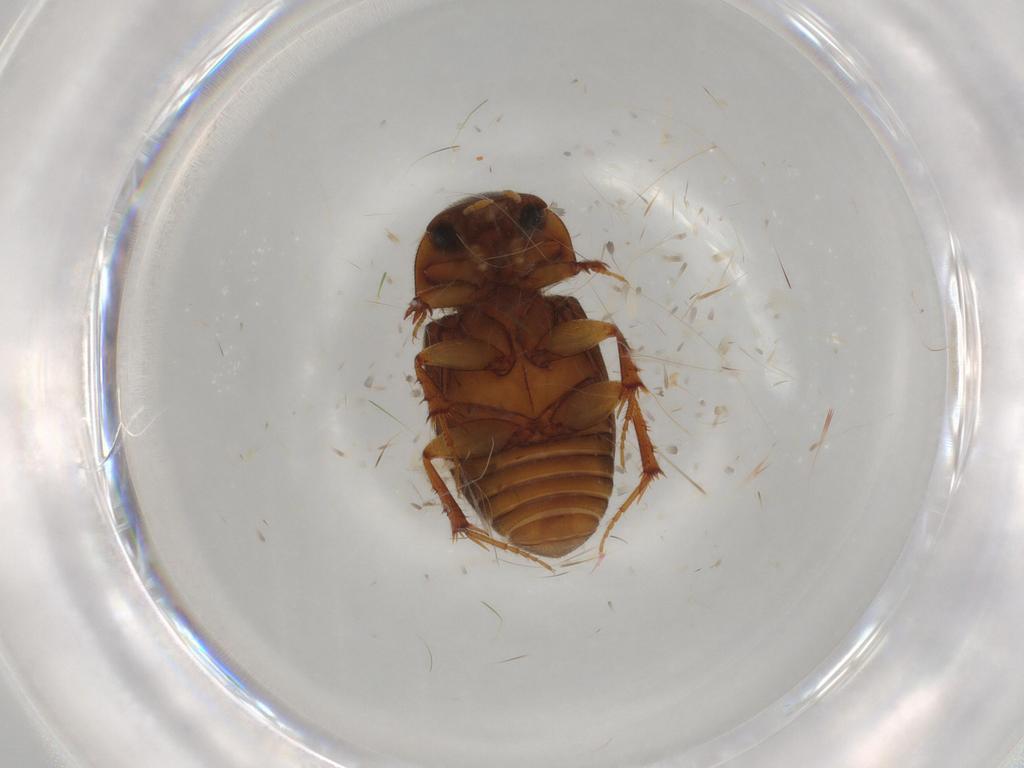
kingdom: Animalia
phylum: Arthropoda
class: Insecta
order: Coleoptera
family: Scarabaeidae
